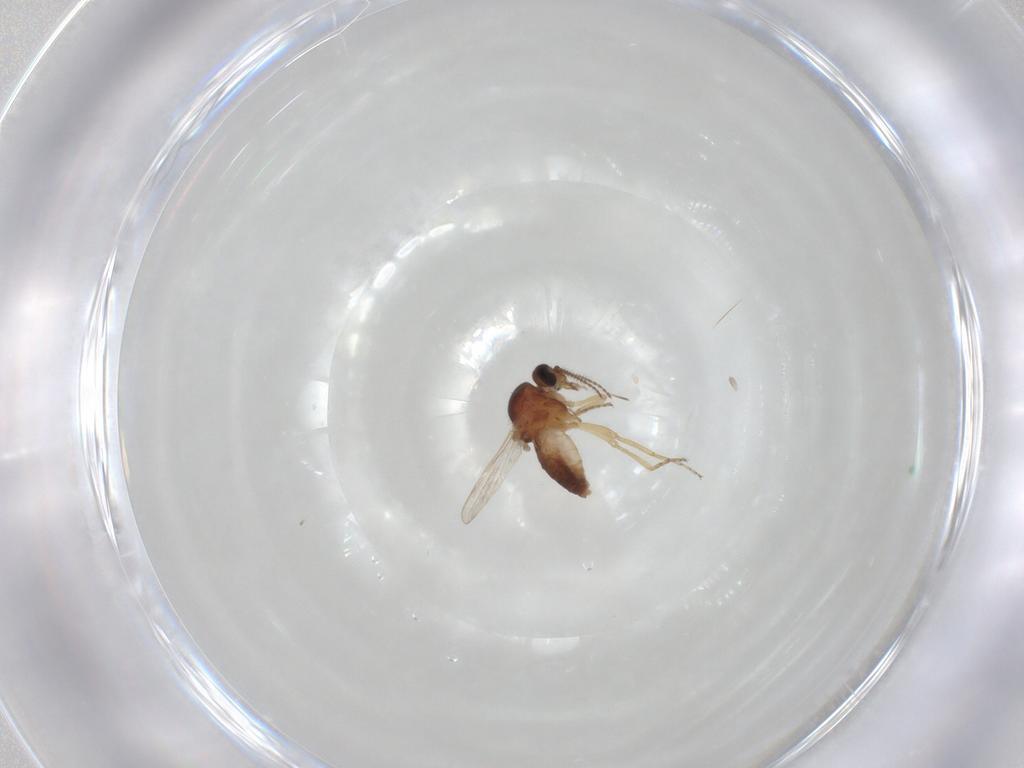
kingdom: Animalia
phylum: Arthropoda
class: Insecta
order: Diptera
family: Ceratopogonidae
